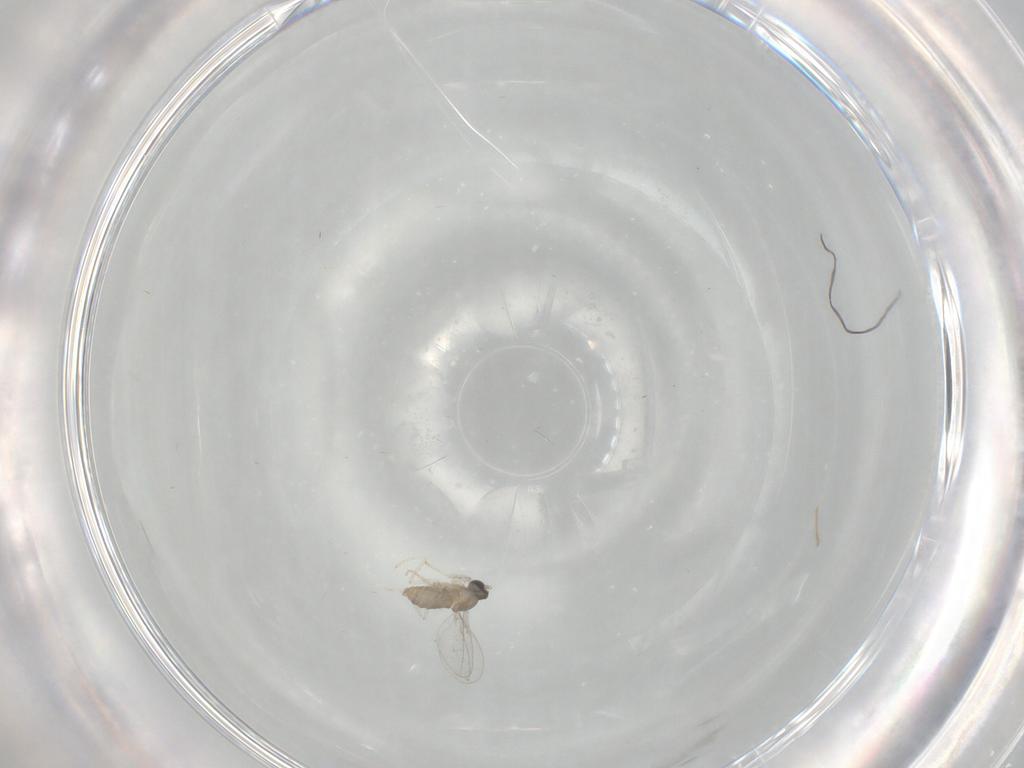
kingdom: Animalia
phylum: Arthropoda
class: Insecta
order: Diptera
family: Cecidomyiidae
